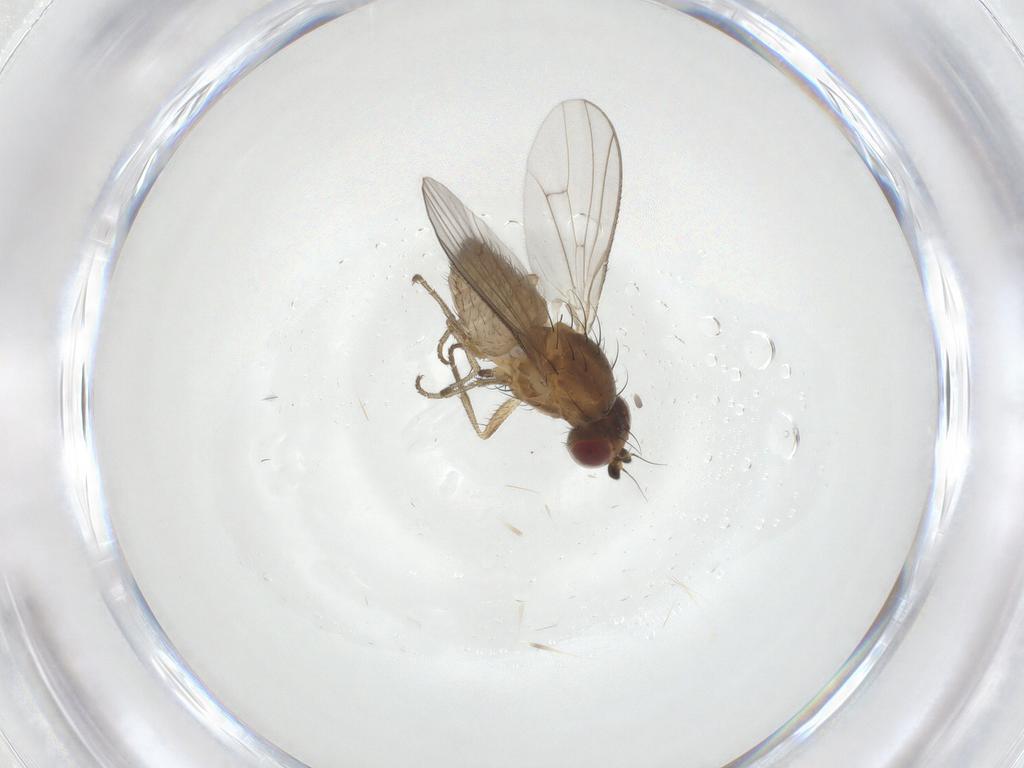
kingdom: Animalia
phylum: Arthropoda
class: Insecta
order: Diptera
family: Heleomyzidae
